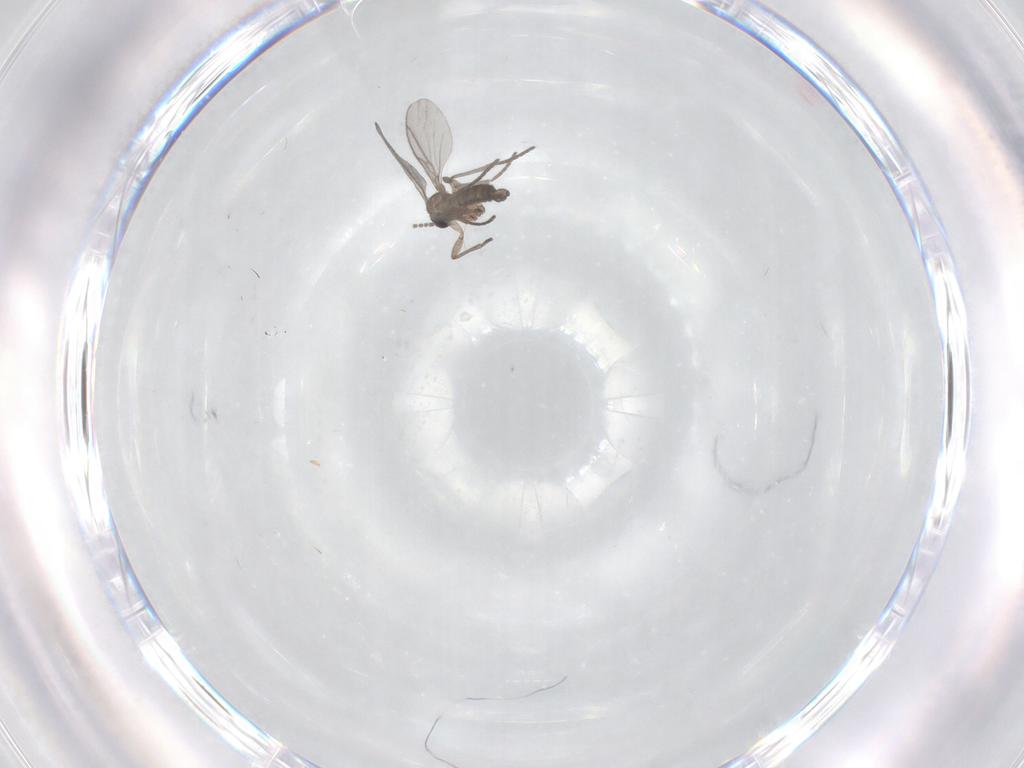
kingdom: Animalia
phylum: Arthropoda
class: Insecta
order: Diptera
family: Sciaridae
